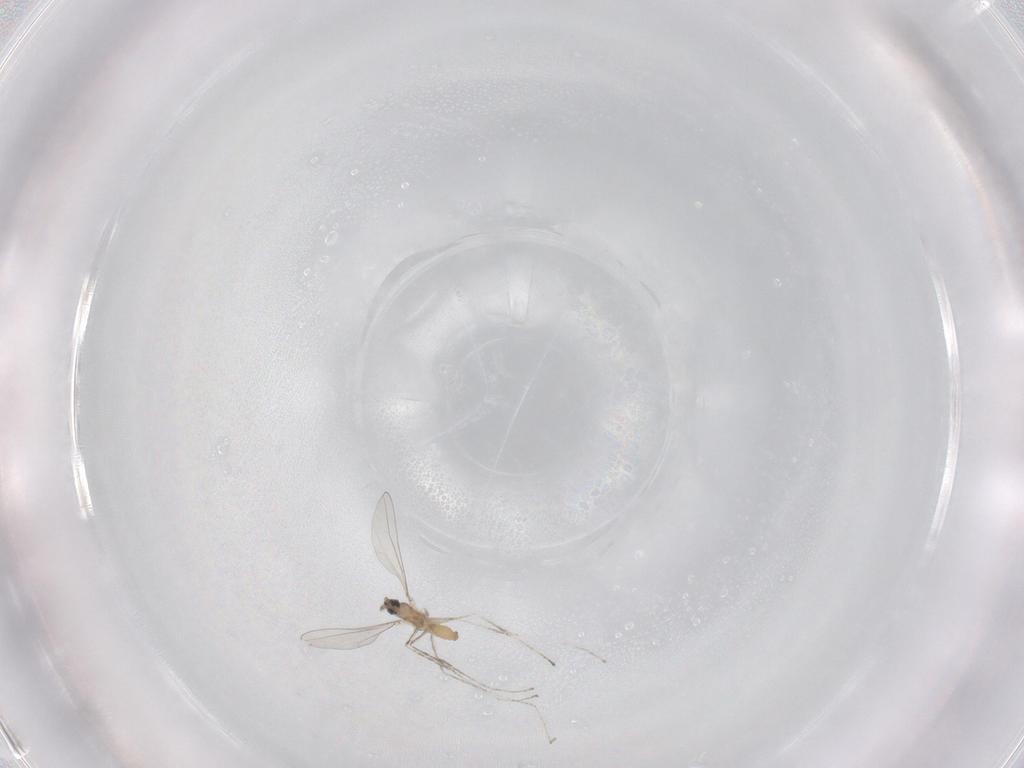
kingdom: Animalia
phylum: Arthropoda
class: Insecta
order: Diptera
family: Cecidomyiidae
